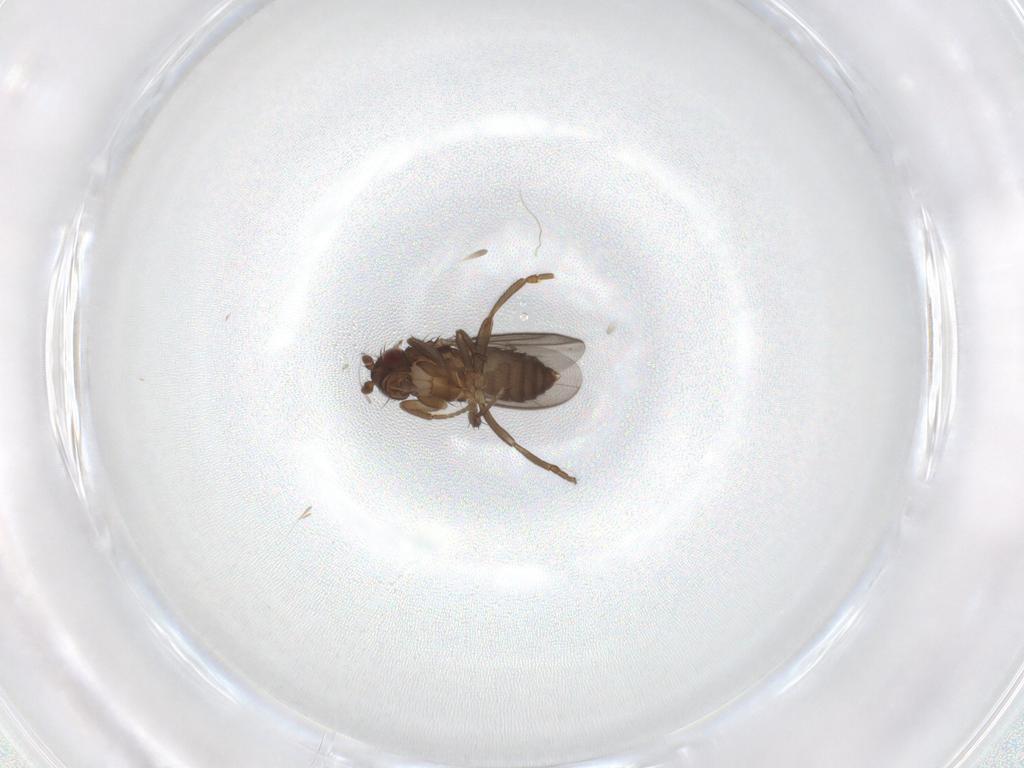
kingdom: Animalia
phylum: Arthropoda
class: Insecta
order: Diptera
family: Sphaeroceridae
